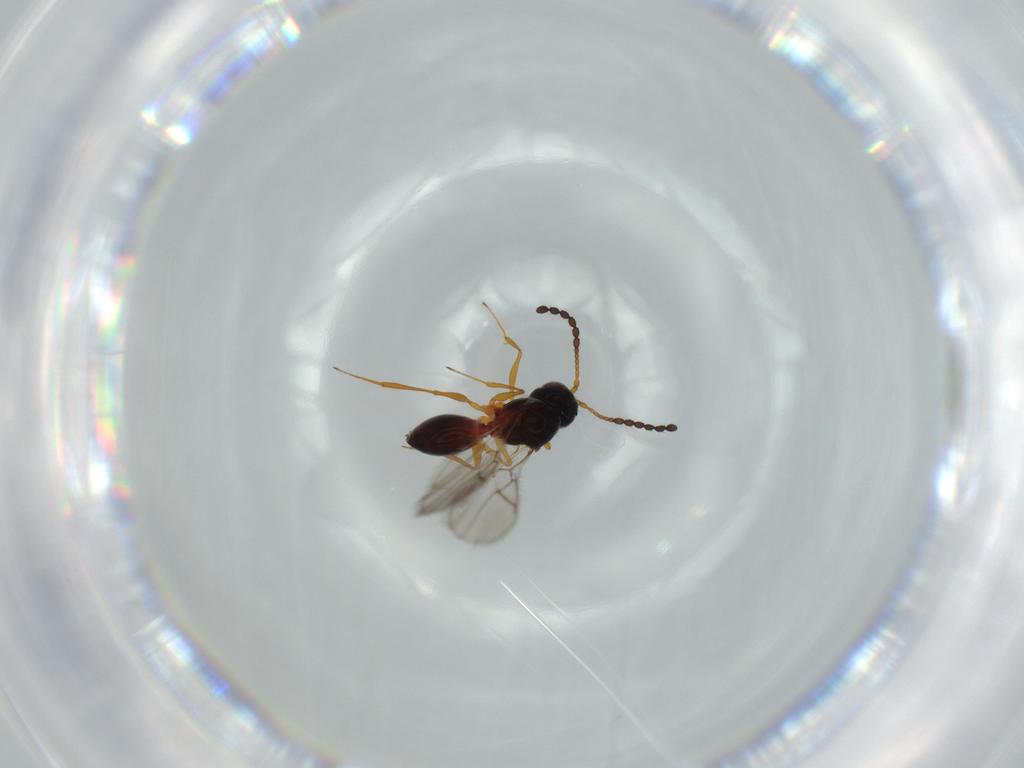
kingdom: Animalia
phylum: Arthropoda
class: Insecta
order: Hymenoptera
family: Figitidae
